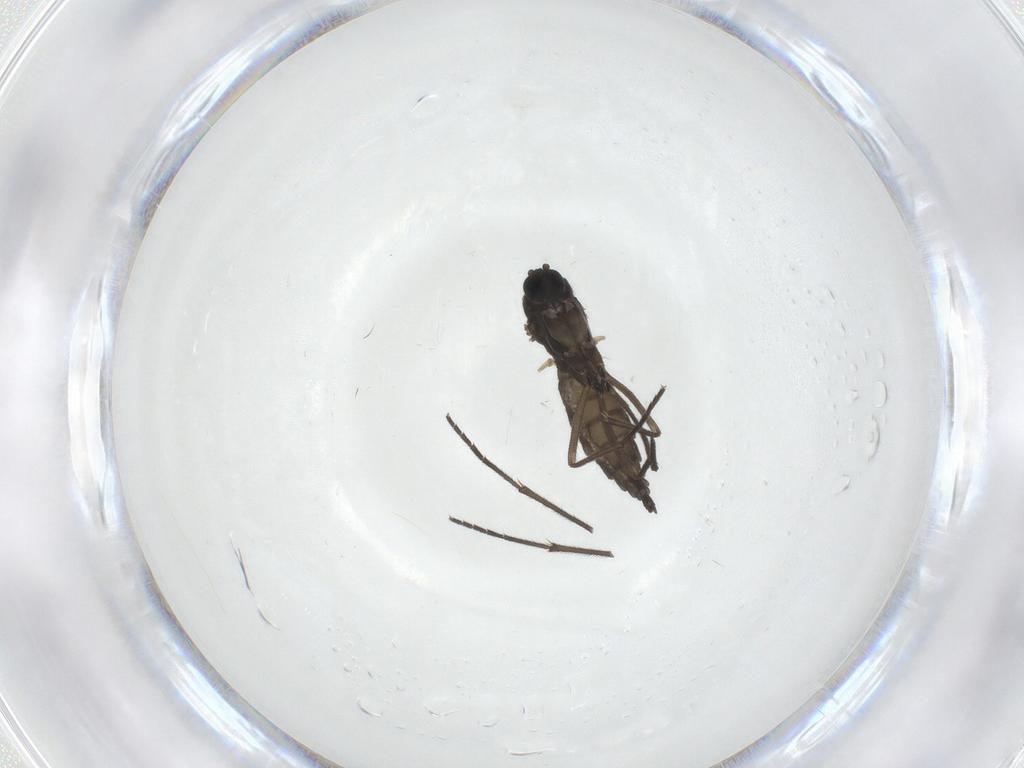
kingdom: Animalia
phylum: Arthropoda
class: Insecta
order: Diptera
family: Sciaridae
